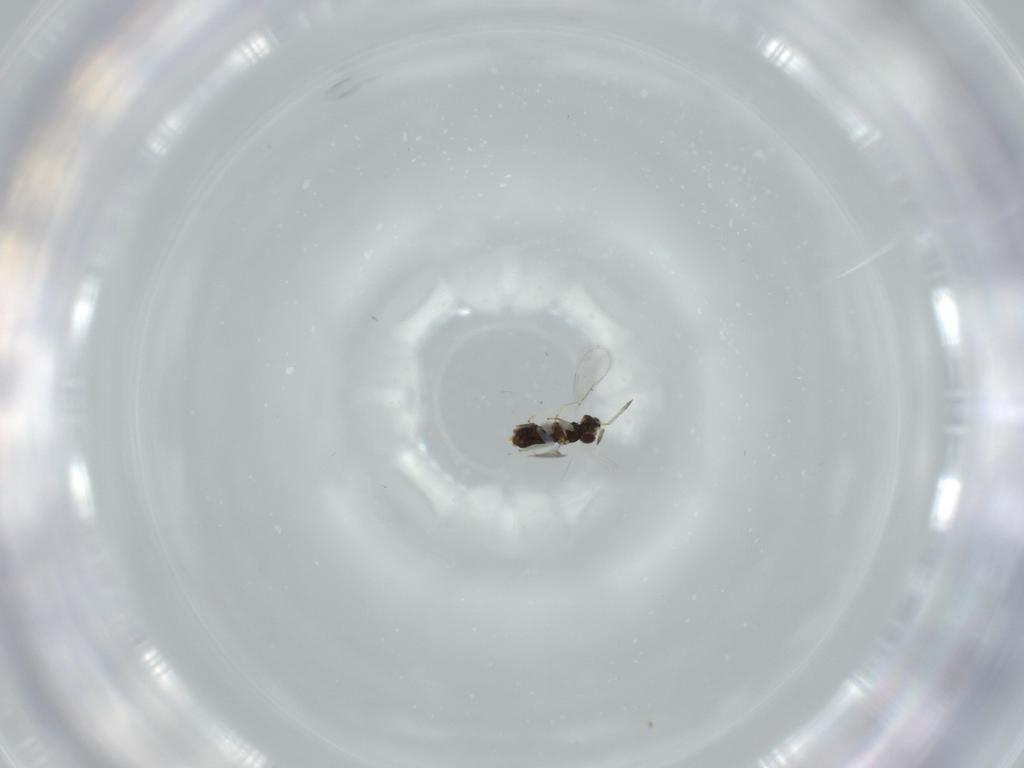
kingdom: Animalia
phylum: Arthropoda
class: Insecta
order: Hymenoptera
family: Aphelinidae
